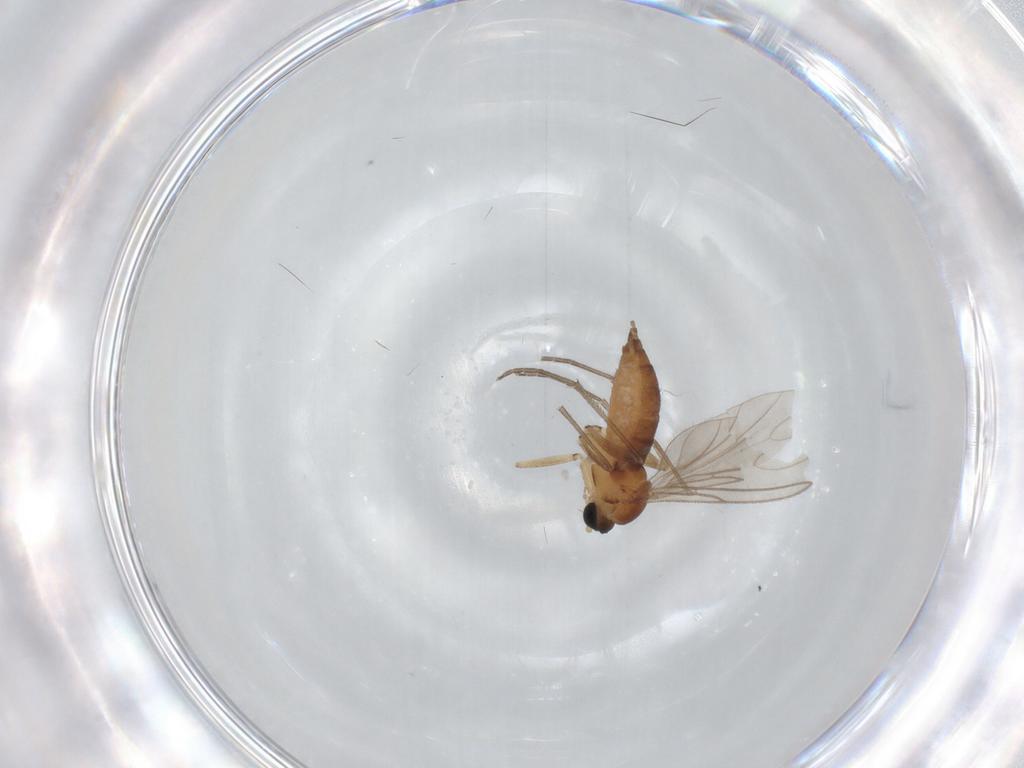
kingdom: Animalia
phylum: Arthropoda
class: Insecta
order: Diptera
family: Sciaridae
